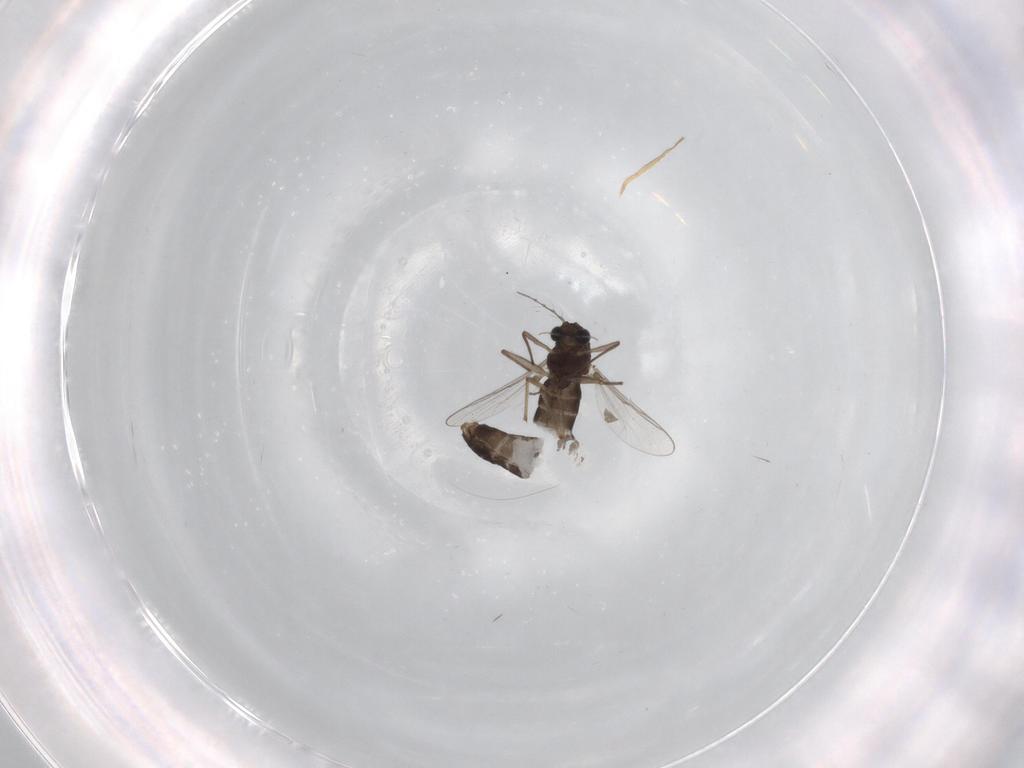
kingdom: Animalia
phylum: Arthropoda
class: Insecta
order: Diptera
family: Chironomidae
